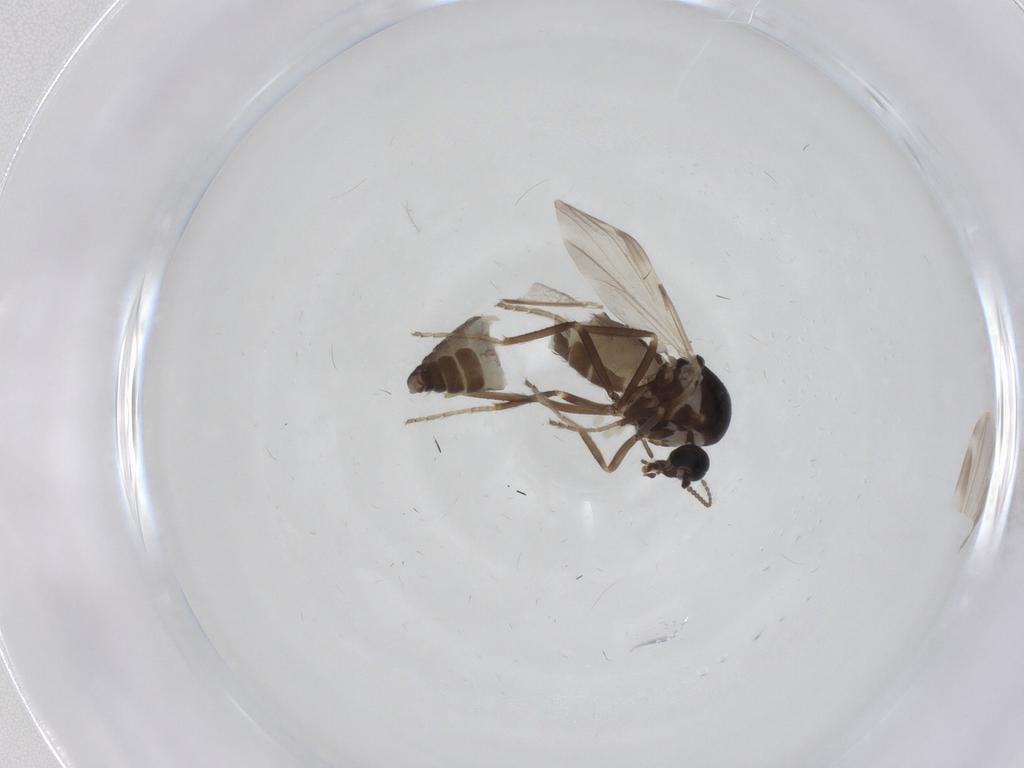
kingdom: Animalia
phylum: Arthropoda
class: Insecta
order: Diptera
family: Ceratopogonidae
